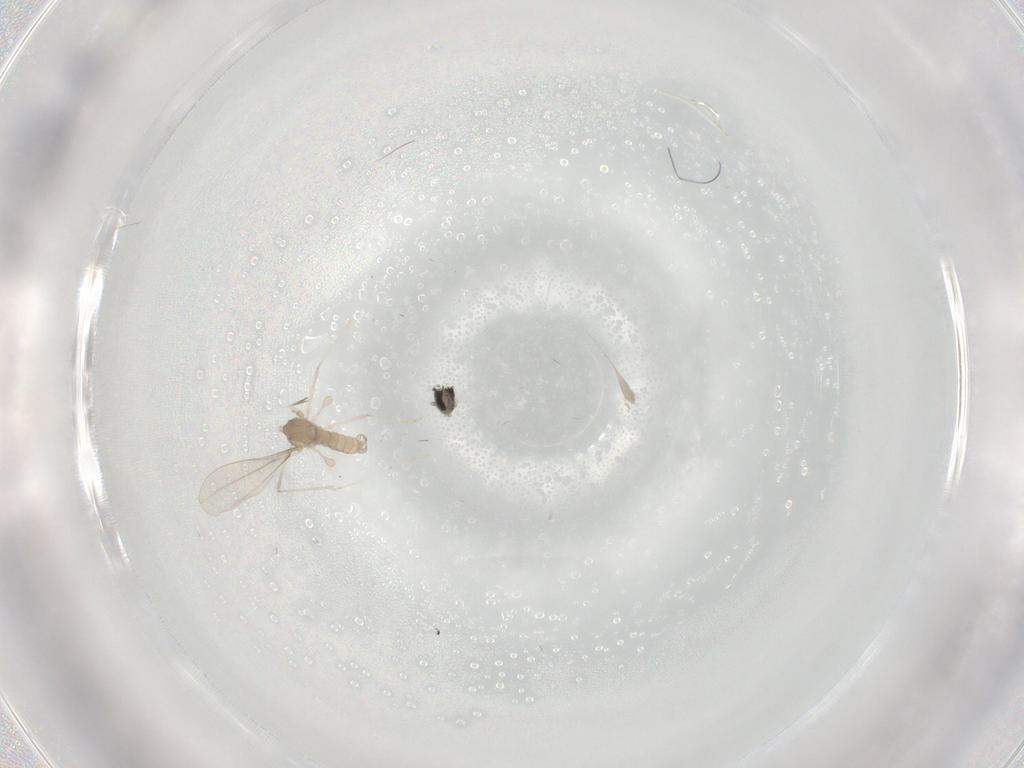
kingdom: Animalia
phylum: Arthropoda
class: Insecta
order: Diptera
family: Cecidomyiidae
